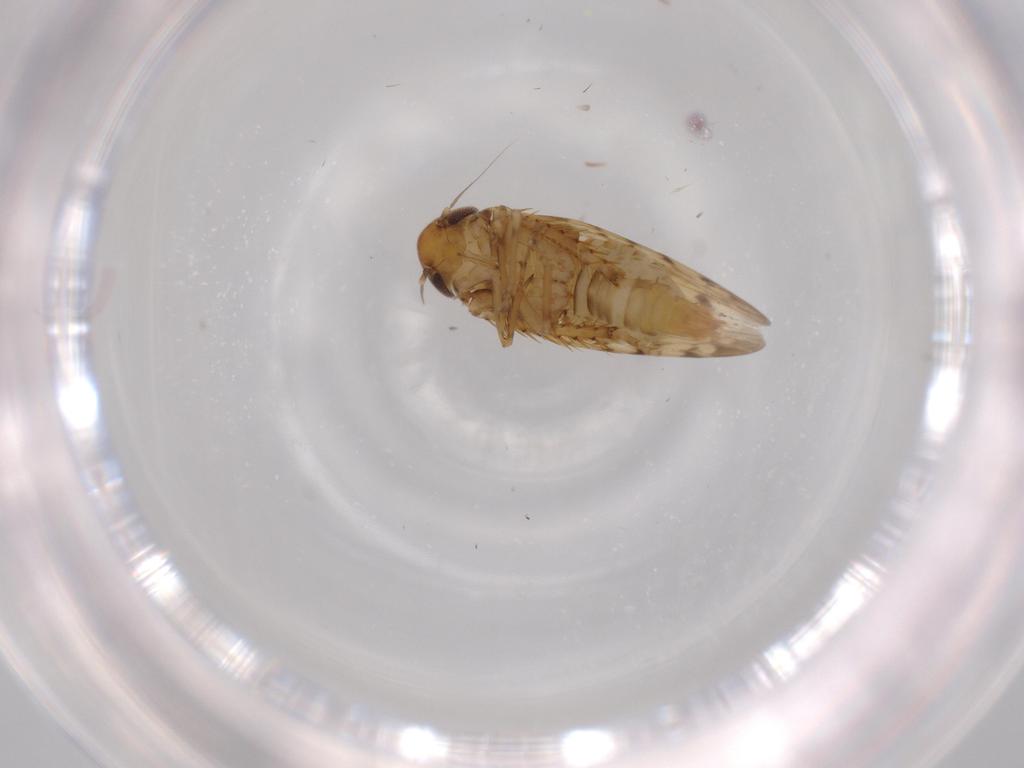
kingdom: Animalia
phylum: Arthropoda
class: Insecta
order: Hemiptera
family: Cicadellidae
